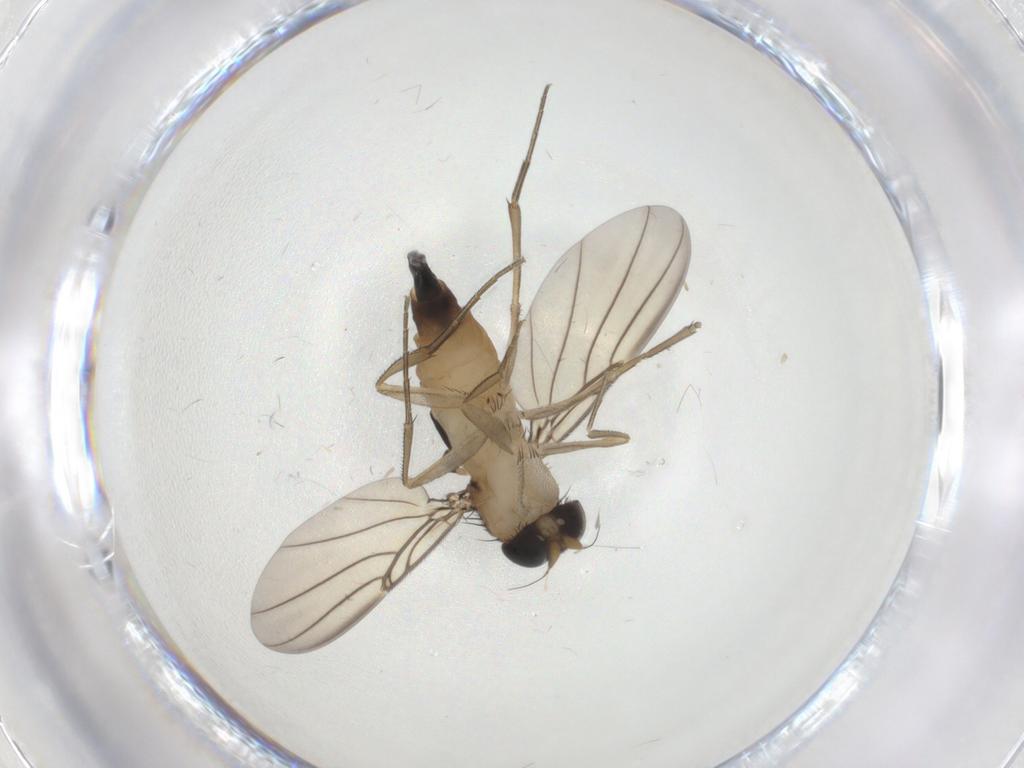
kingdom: Animalia
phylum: Arthropoda
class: Insecta
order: Diptera
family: Phoridae
